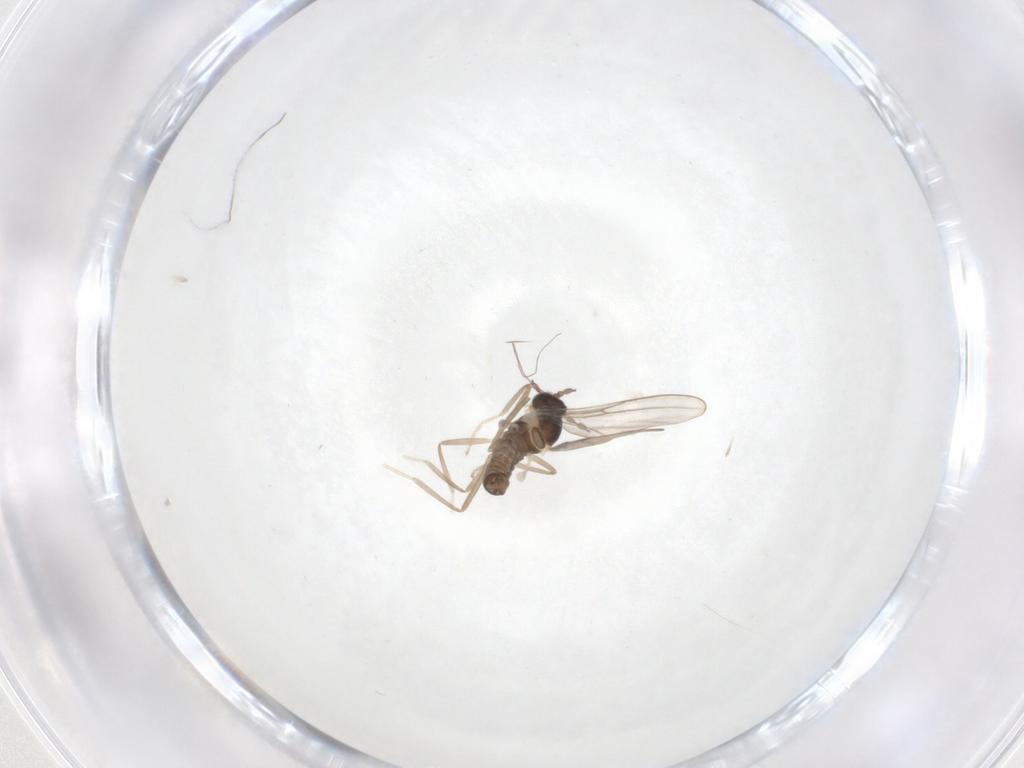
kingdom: Animalia
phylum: Arthropoda
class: Insecta
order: Diptera
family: Cecidomyiidae
